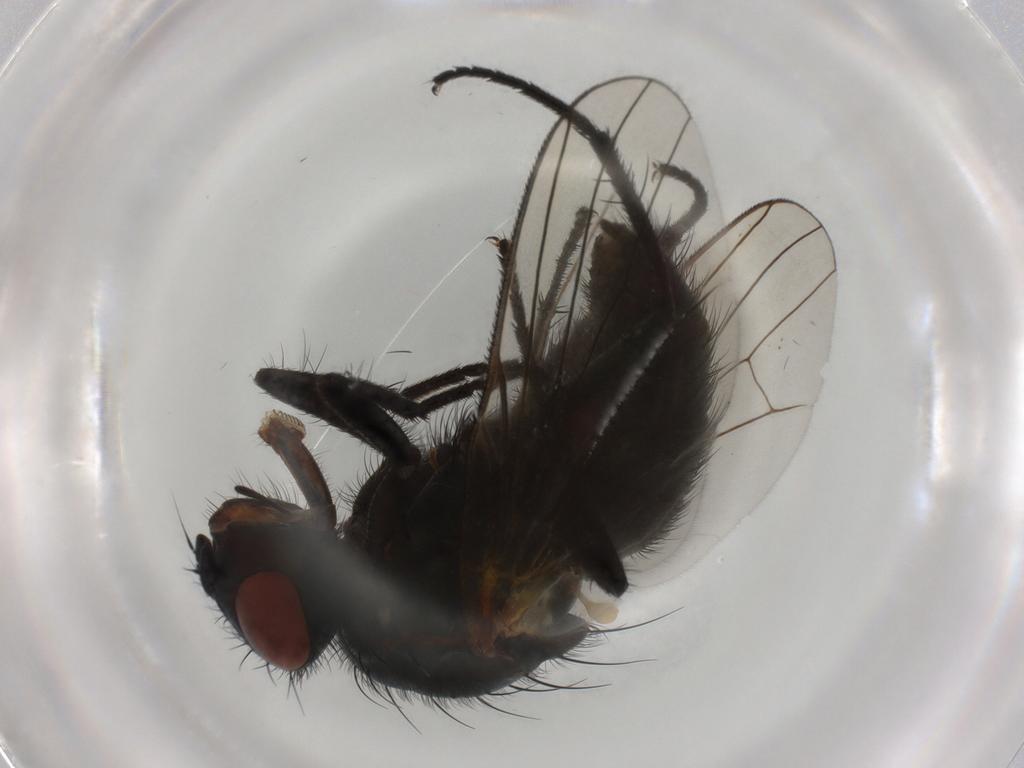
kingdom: Animalia
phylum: Arthropoda
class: Insecta
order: Diptera
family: Anthomyiidae
